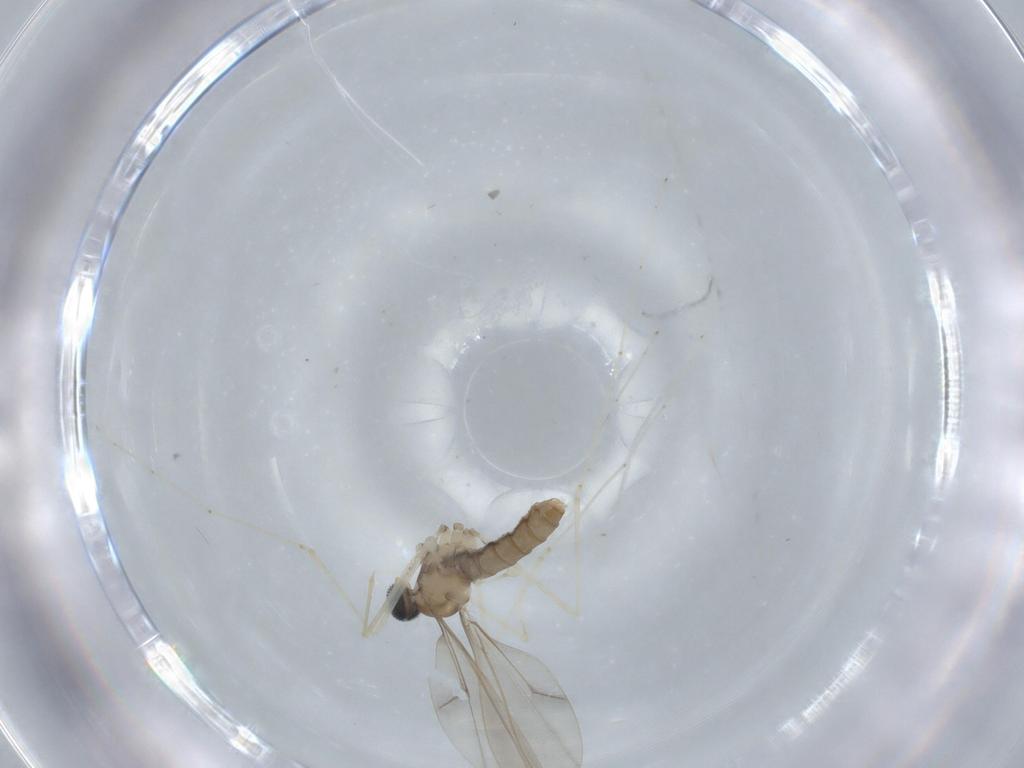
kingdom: Animalia
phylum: Arthropoda
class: Insecta
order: Diptera
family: Cecidomyiidae
